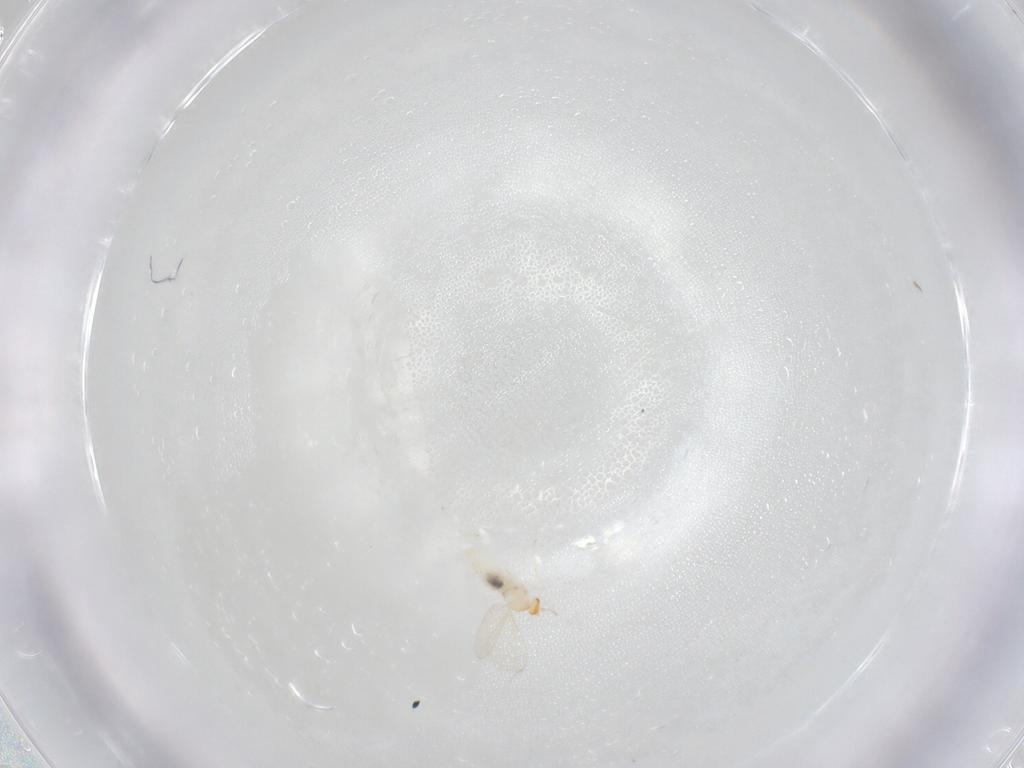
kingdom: Animalia
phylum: Arthropoda
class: Insecta
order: Diptera
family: Cecidomyiidae
